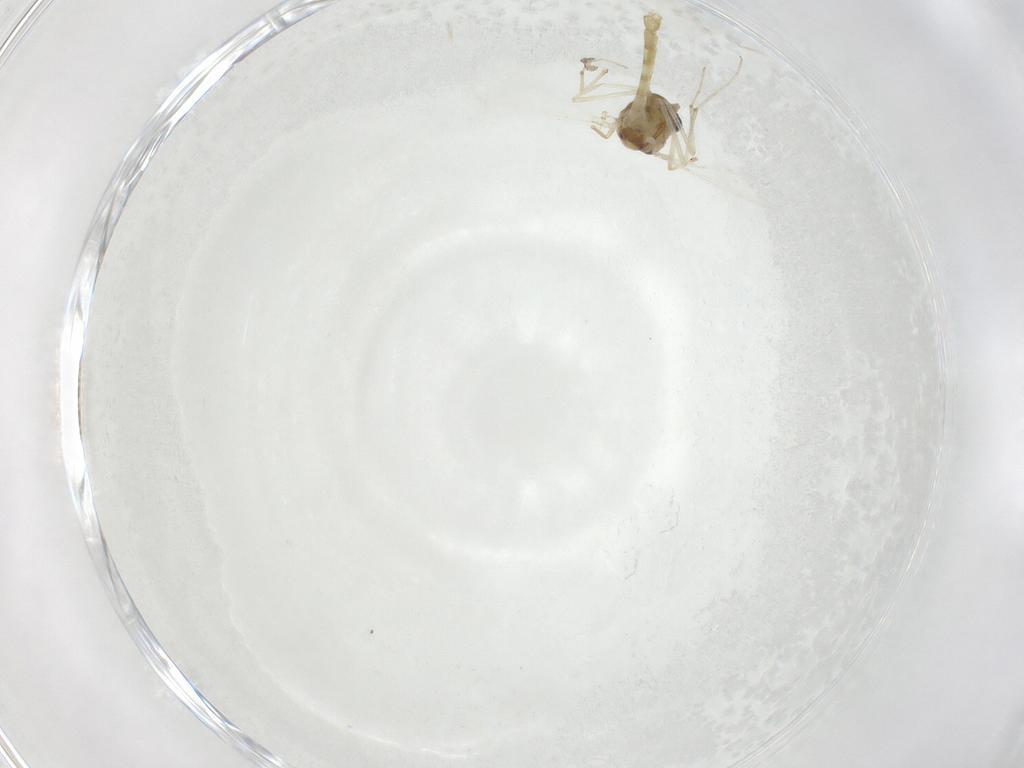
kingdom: Animalia
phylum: Arthropoda
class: Insecta
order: Diptera
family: Chironomidae
